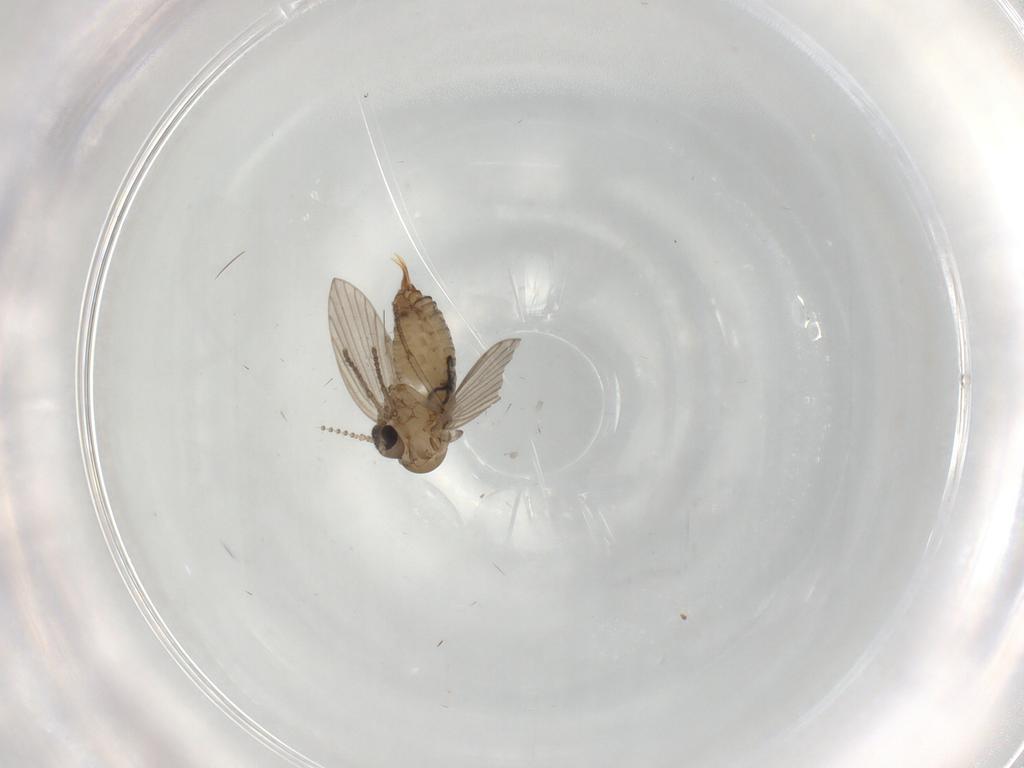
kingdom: Animalia
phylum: Arthropoda
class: Insecta
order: Diptera
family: Psychodidae
